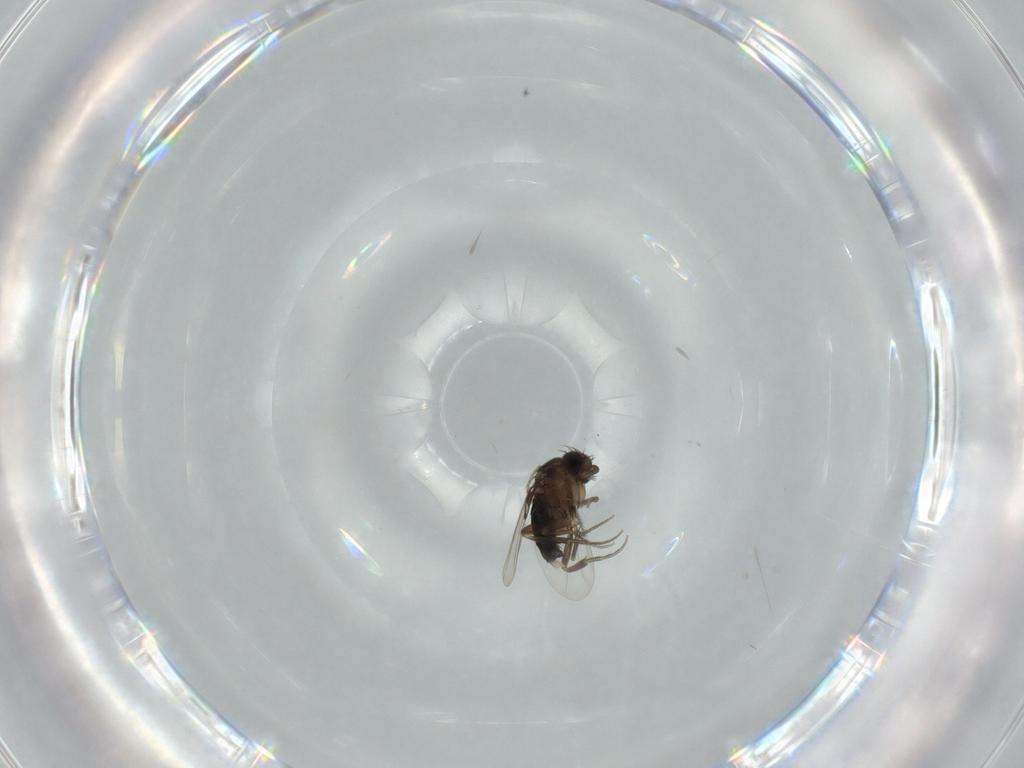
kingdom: Animalia
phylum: Arthropoda
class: Insecta
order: Diptera
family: Phoridae
